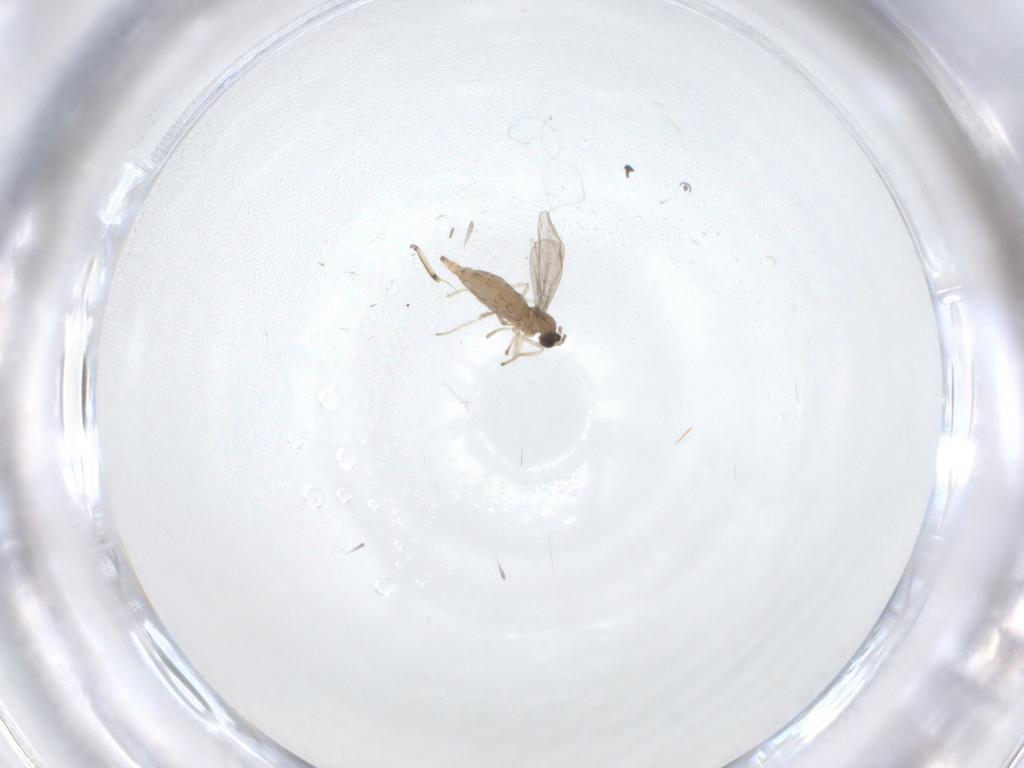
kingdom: Animalia
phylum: Arthropoda
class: Insecta
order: Diptera
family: Cecidomyiidae
